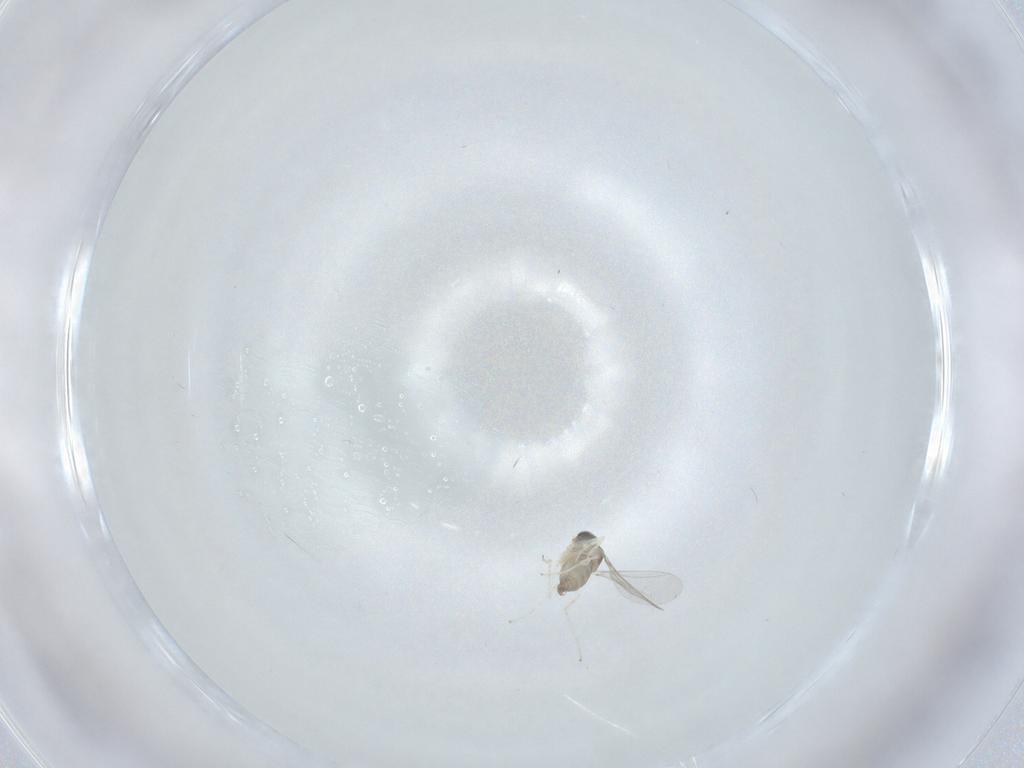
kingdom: Animalia
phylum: Arthropoda
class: Insecta
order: Diptera
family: Cecidomyiidae
